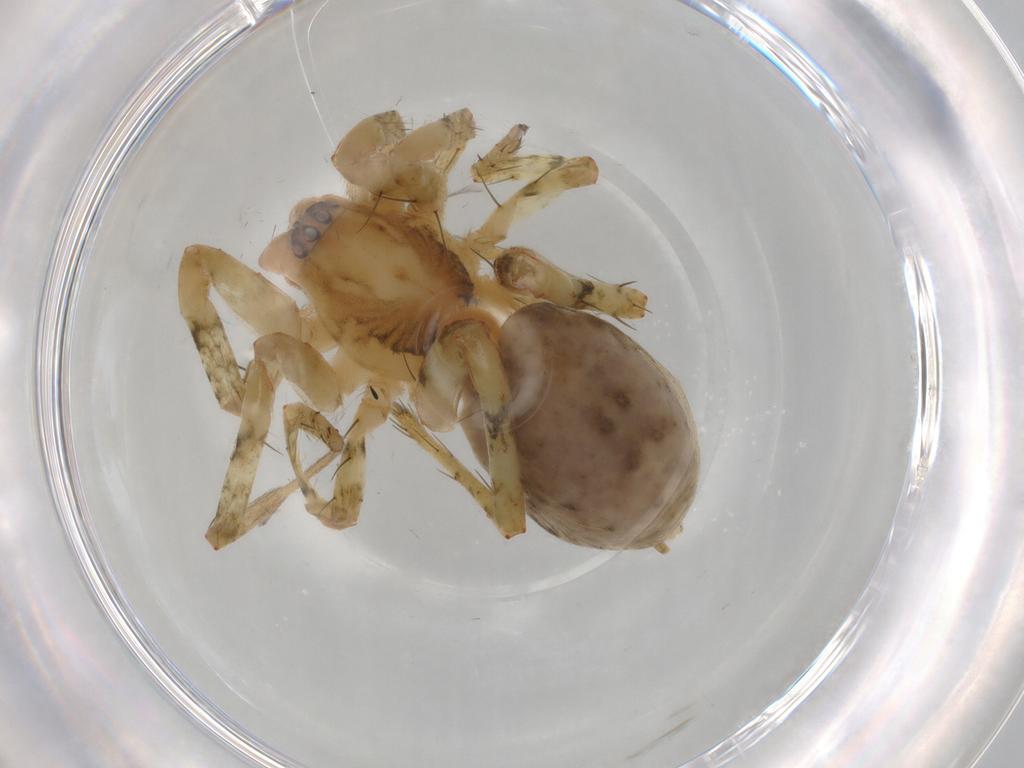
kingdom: Animalia
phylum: Arthropoda
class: Arachnida
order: Araneae
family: Anyphaenidae
